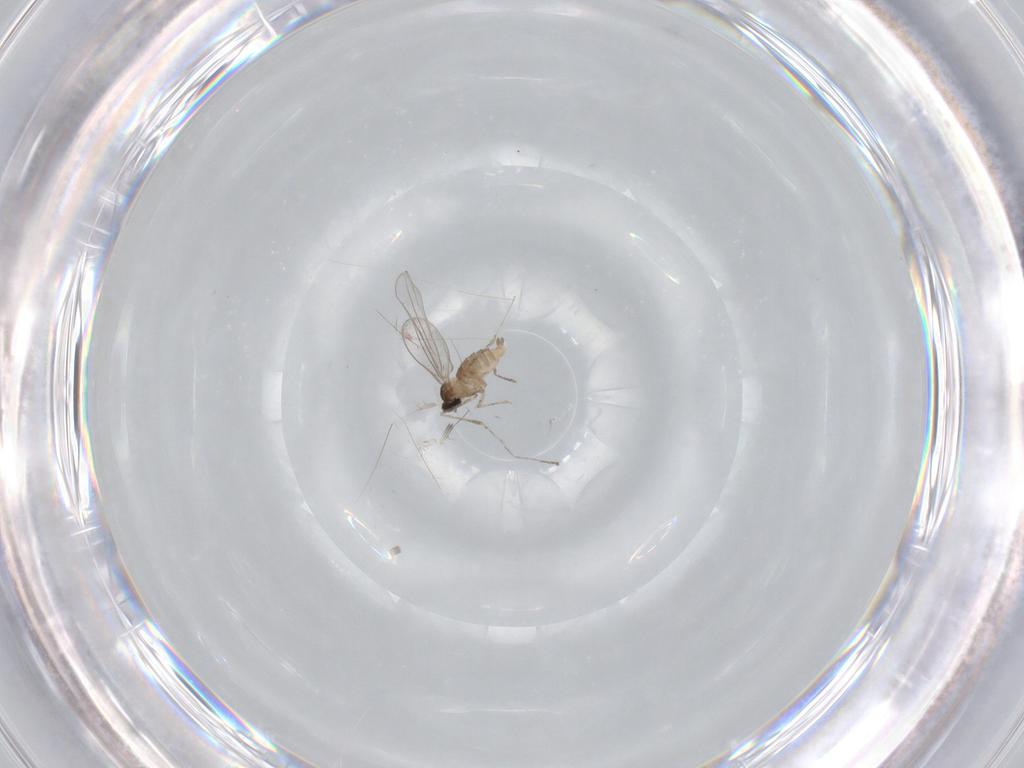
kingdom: Animalia
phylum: Arthropoda
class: Insecta
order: Diptera
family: Cecidomyiidae
